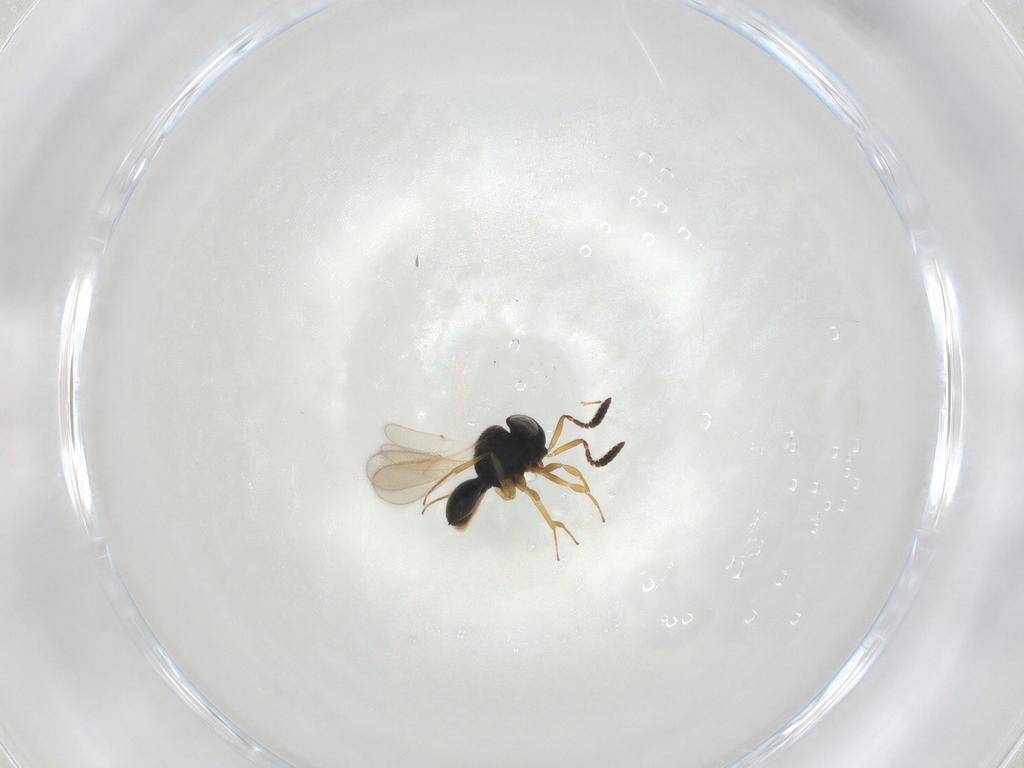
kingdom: Animalia
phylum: Arthropoda
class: Insecta
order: Hymenoptera
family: Scelionidae
